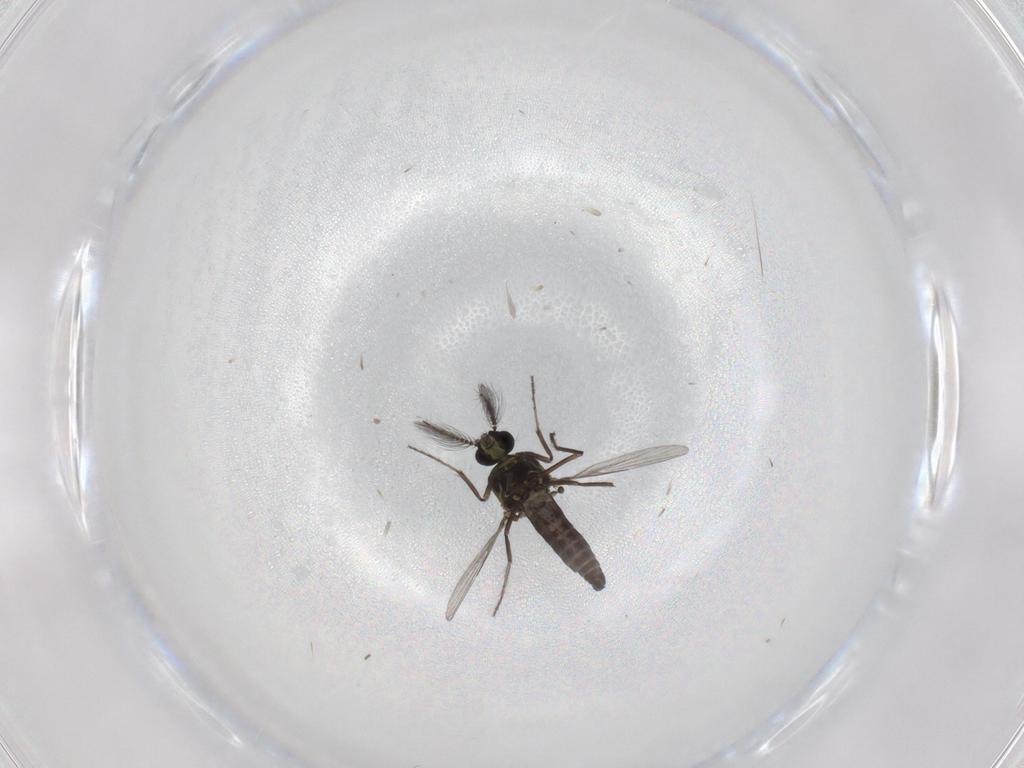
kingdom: Animalia
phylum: Arthropoda
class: Insecta
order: Diptera
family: Ceratopogonidae
